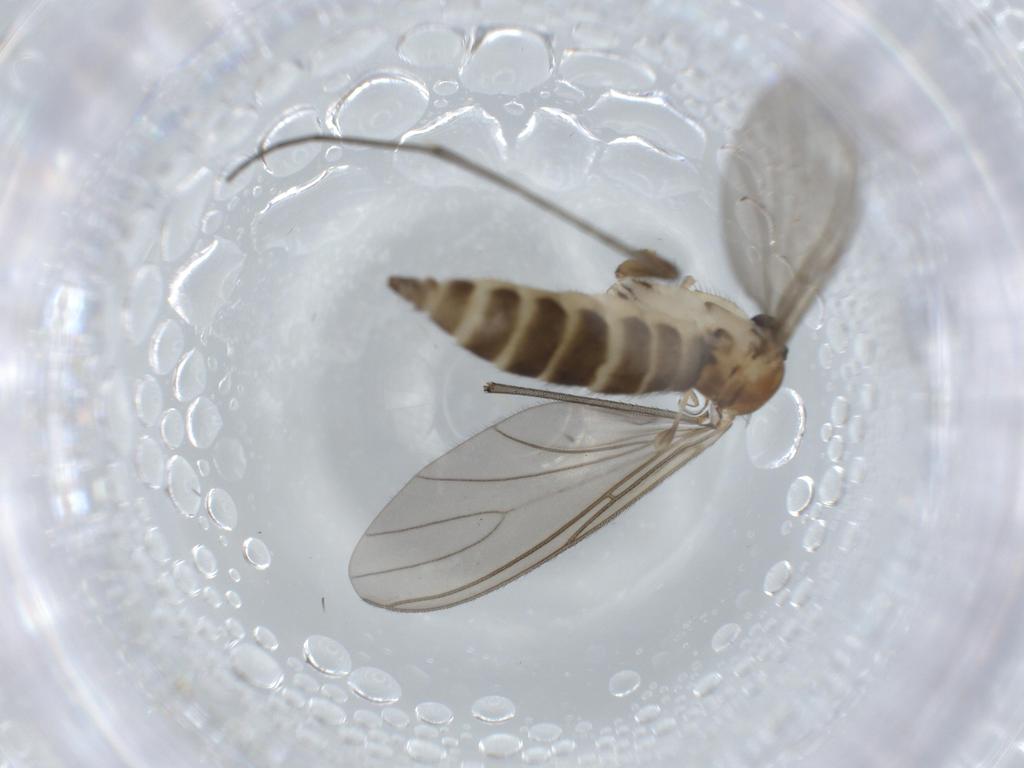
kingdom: Animalia
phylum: Arthropoda
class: Insecta
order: Diptera
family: Sciaridae
